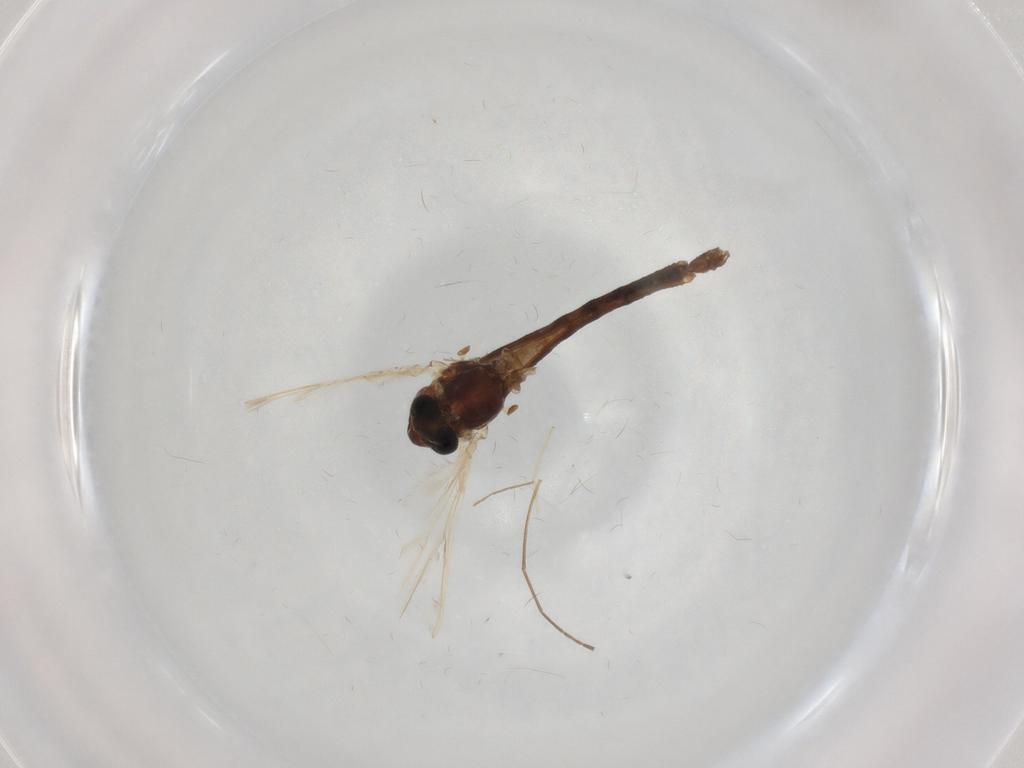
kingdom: Animalia
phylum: Arthropoda
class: Insecta
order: Diptera
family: Chironomidae
